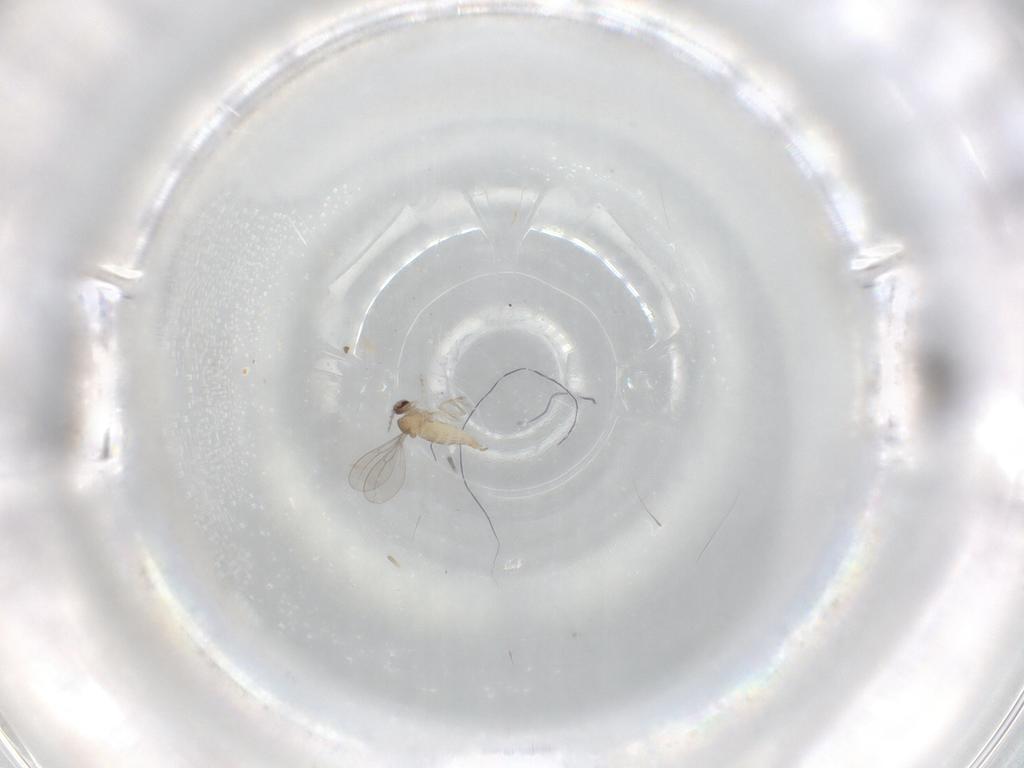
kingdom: Animalia
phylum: Arthropoda
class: Insecta
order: Diptera
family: Cecidomyiidae
